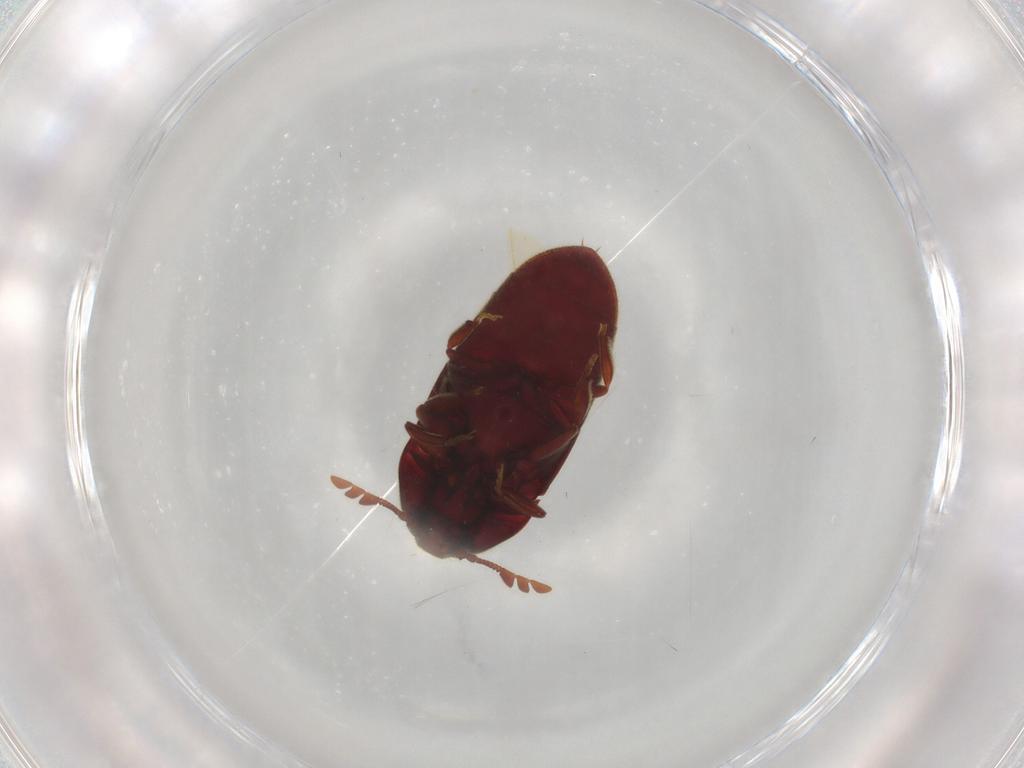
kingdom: Animalia
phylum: Arthropoda
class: Insecta
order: Coleoptera
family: Throscidae
